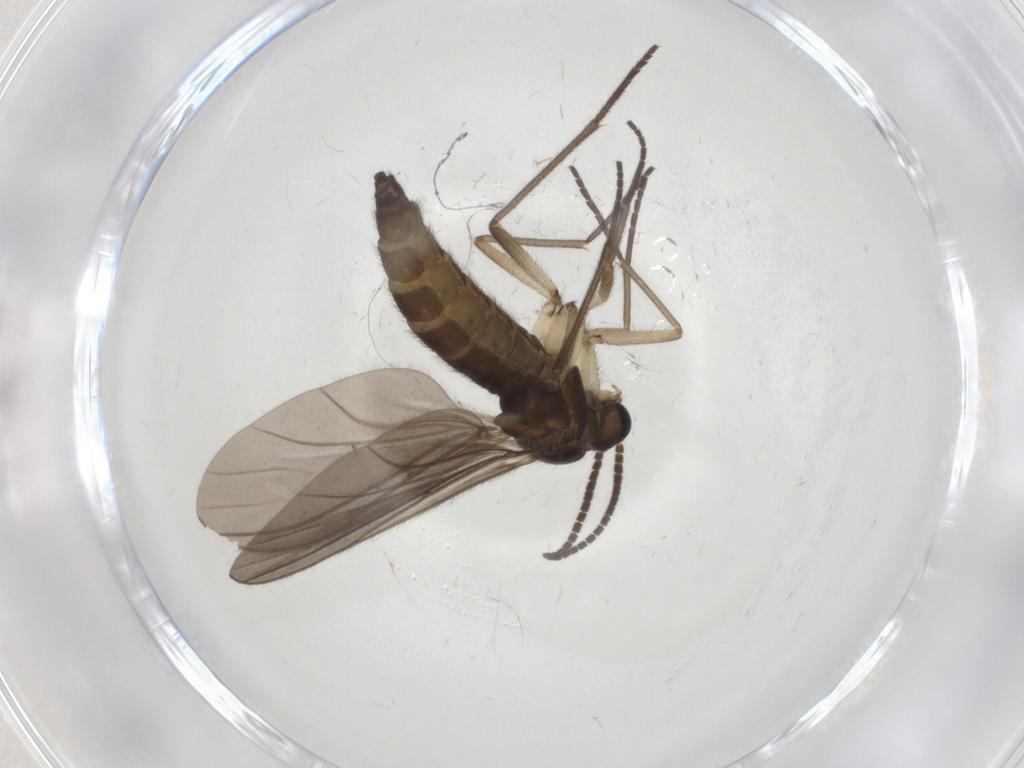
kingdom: Animalia
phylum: Arthropoda
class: Insecta
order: Diptera
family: Sciaridae
